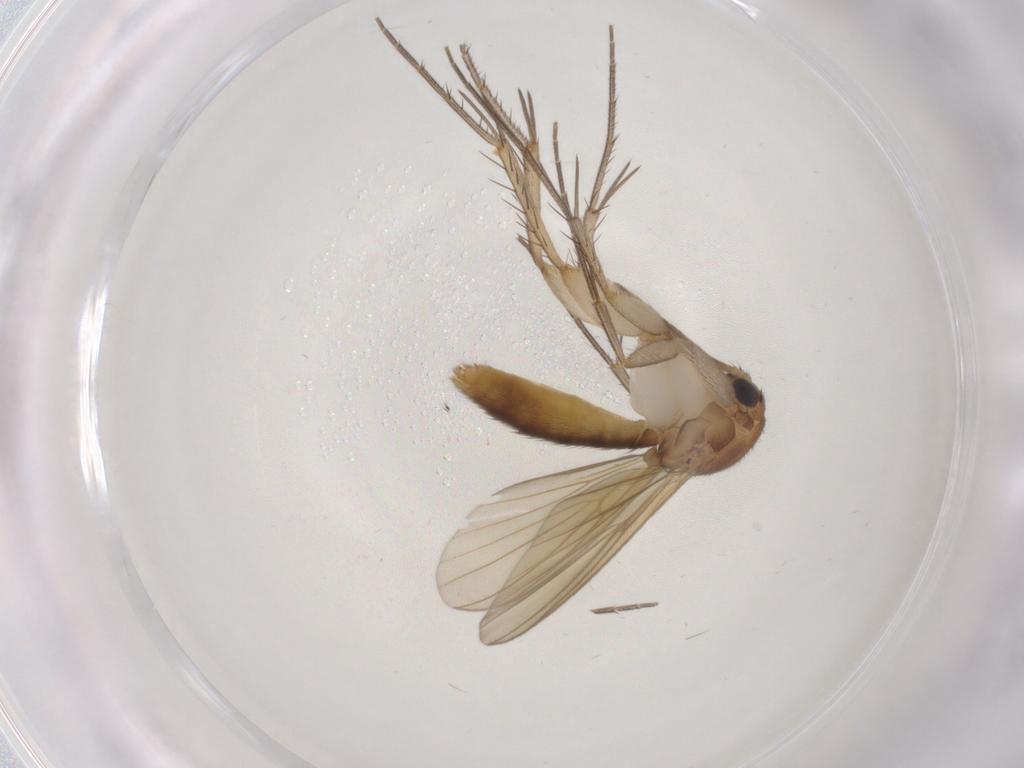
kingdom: Animalia
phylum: Arthropoda
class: Insecta
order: Diptera
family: Mycetophilidae
